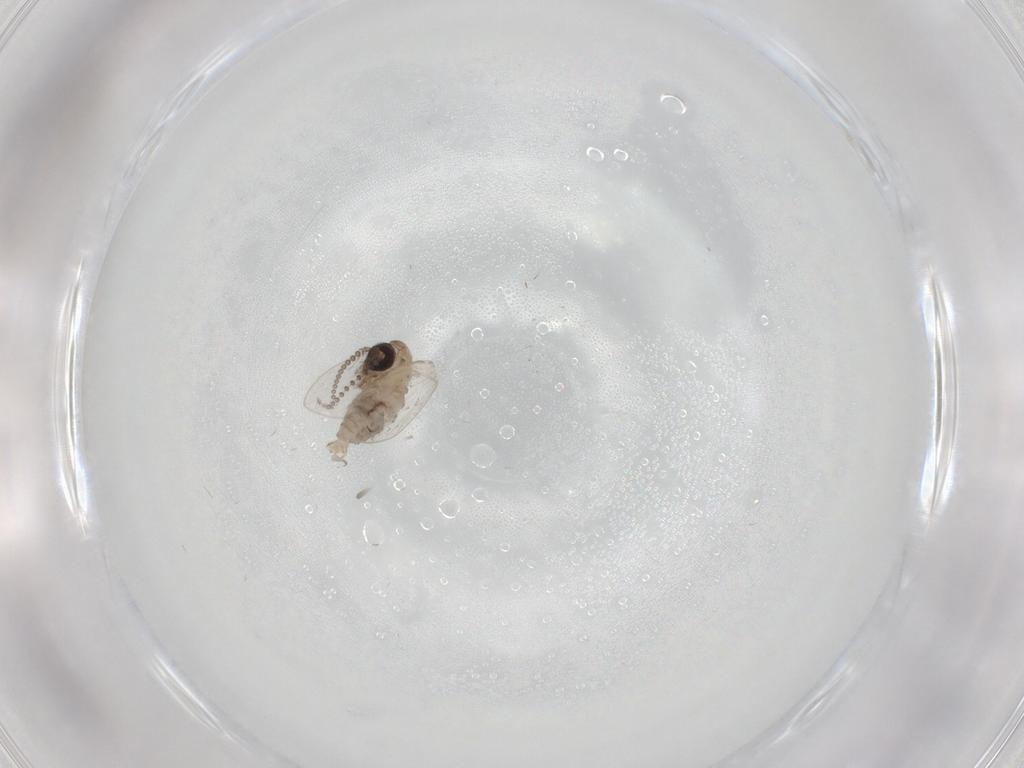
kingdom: Animalia
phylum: Arthropoda
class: Insecta
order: Diptera
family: Psychodidae
